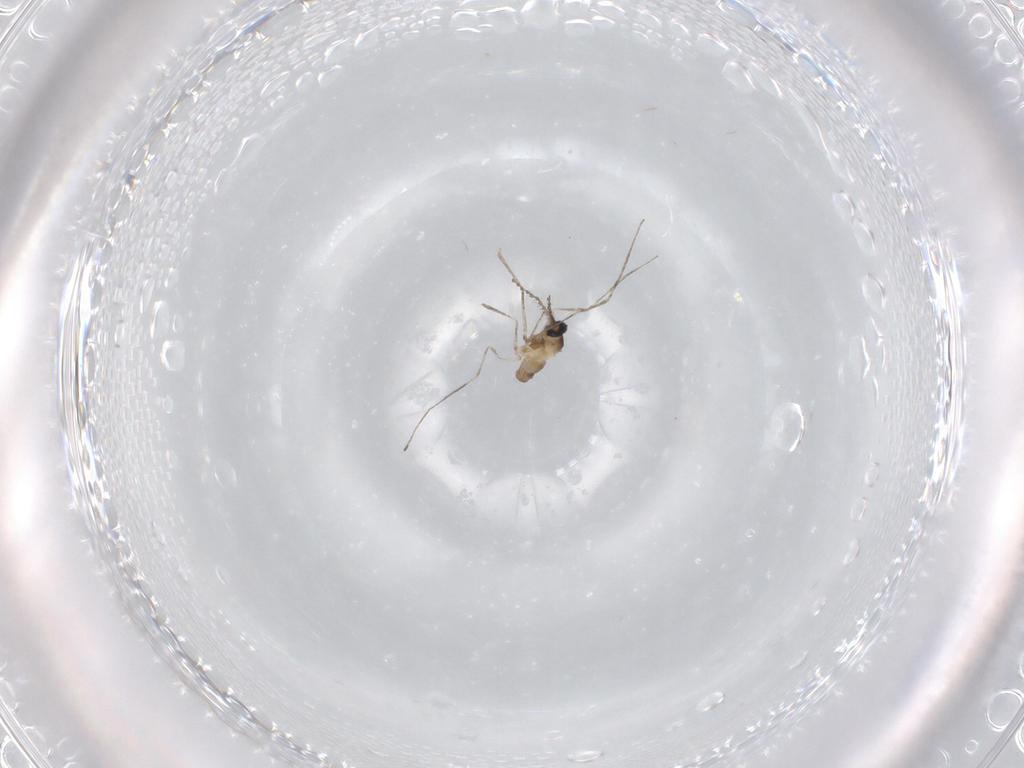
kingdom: Animalia
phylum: Arthropoda
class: Insecta
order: Diptera
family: Cecidomyiidae
